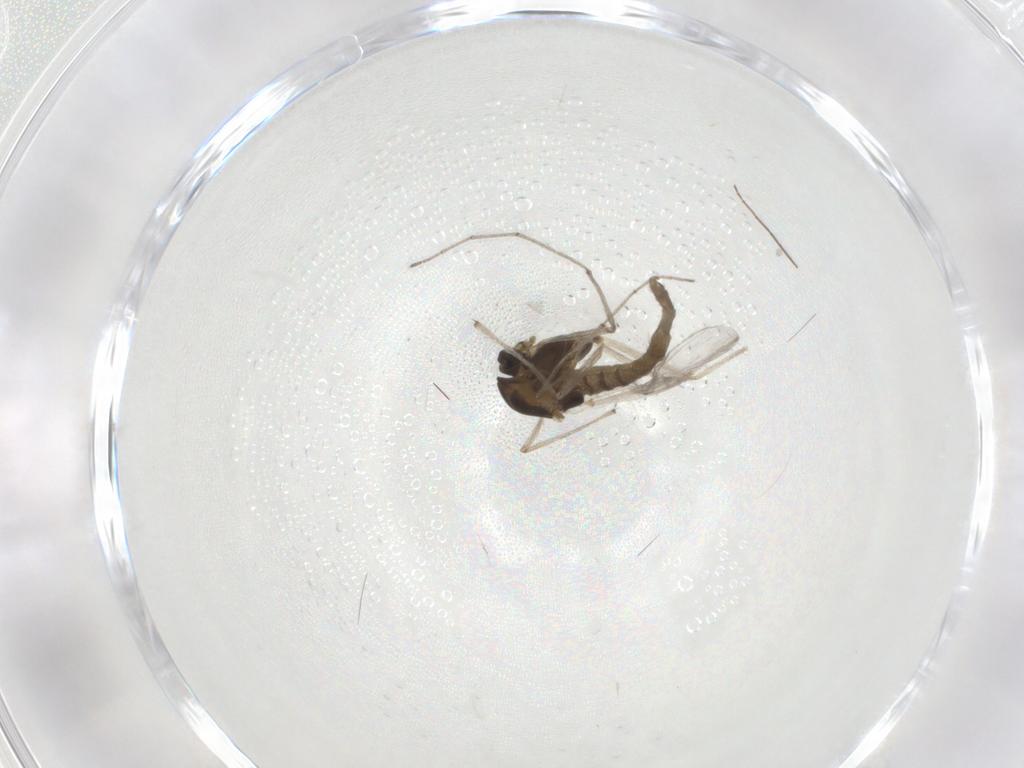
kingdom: Animalia
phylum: Arthropoda
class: Insecta
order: Diptera
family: Chironomidae
